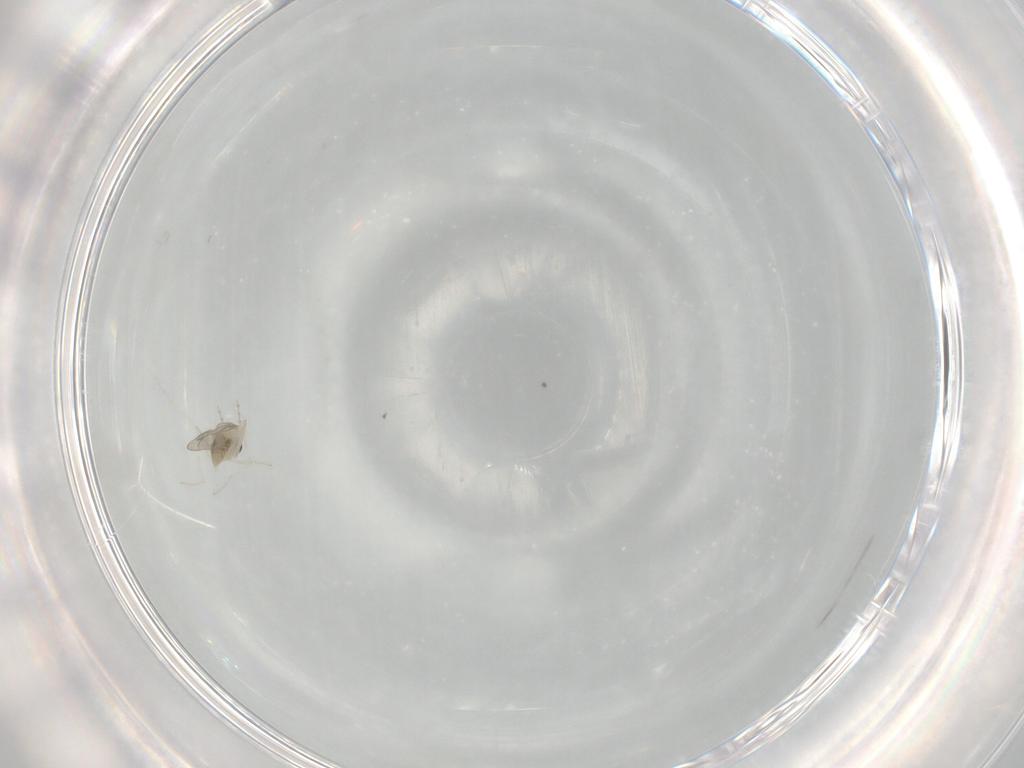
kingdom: Animalia
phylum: Arthropoda
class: Insecta
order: Diptera
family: Cecidomyiidae
